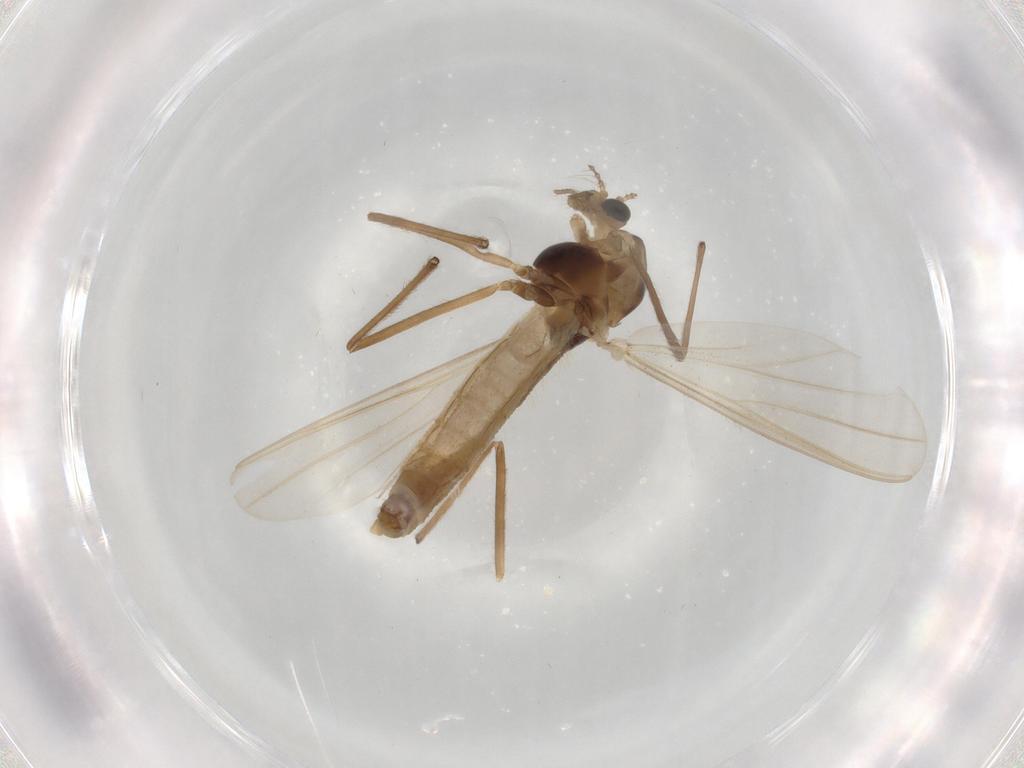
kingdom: Animalia
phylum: Arthropoda
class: Insecta
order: Diptera
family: Chironomidae
